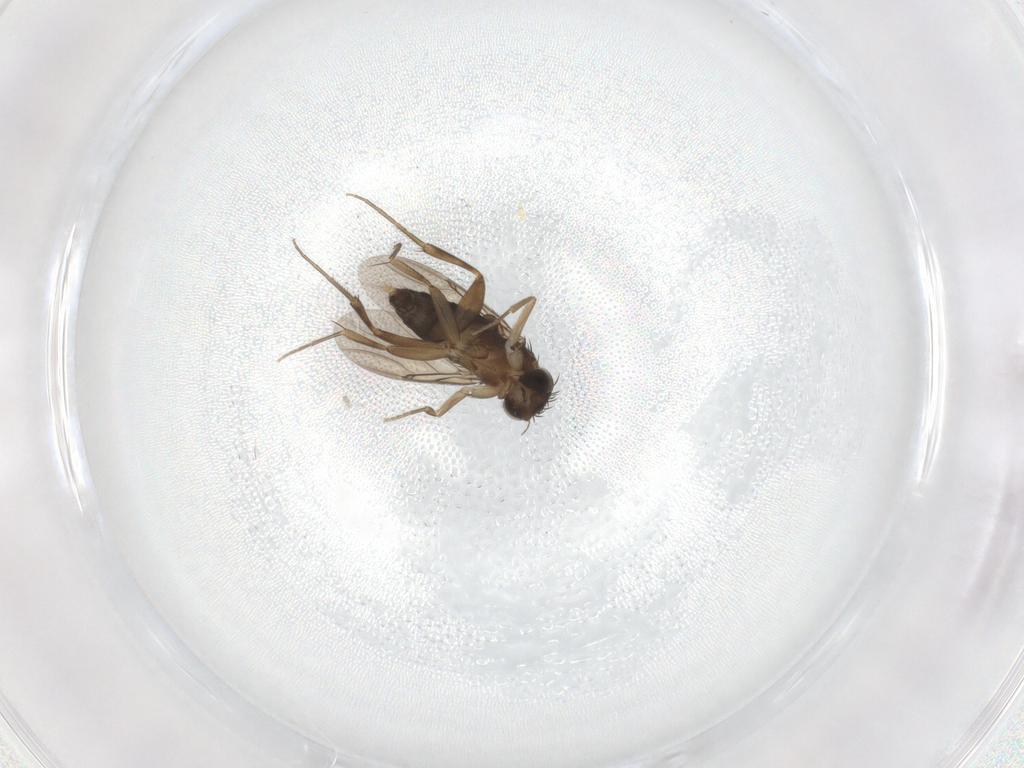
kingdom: Animalia
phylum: Arthropoda
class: Insecta
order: Diptera
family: Phoridae
